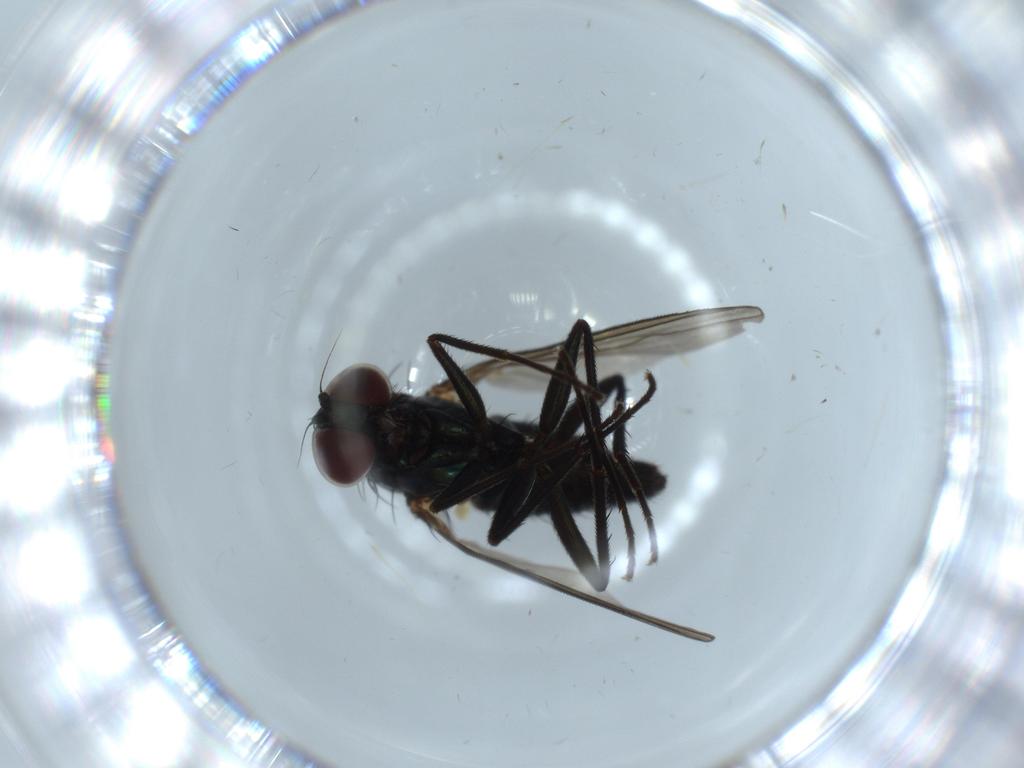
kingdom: Animalia
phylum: Arthropoda
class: Insecta
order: Diptera
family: Dolichopodidae
